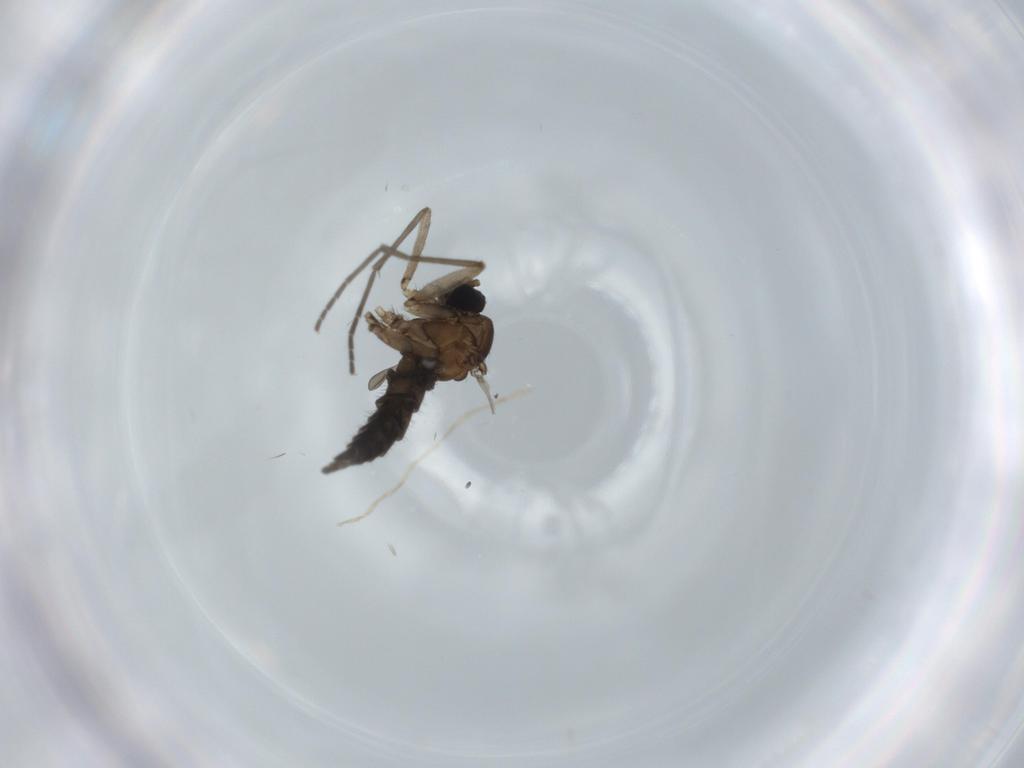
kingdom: Animalia
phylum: Arthropoda
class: Insecta
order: Diptera
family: Sciaridae
